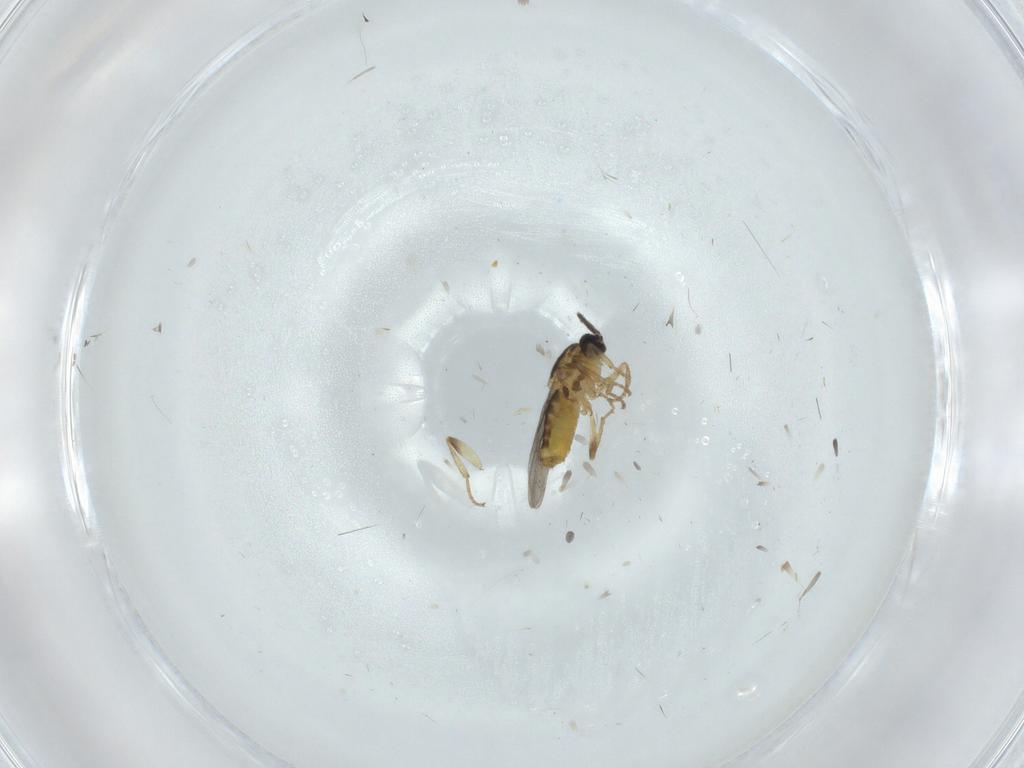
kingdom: Animalia
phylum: Arthropoda
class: Insecta
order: Diptera
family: Scatopsidae
